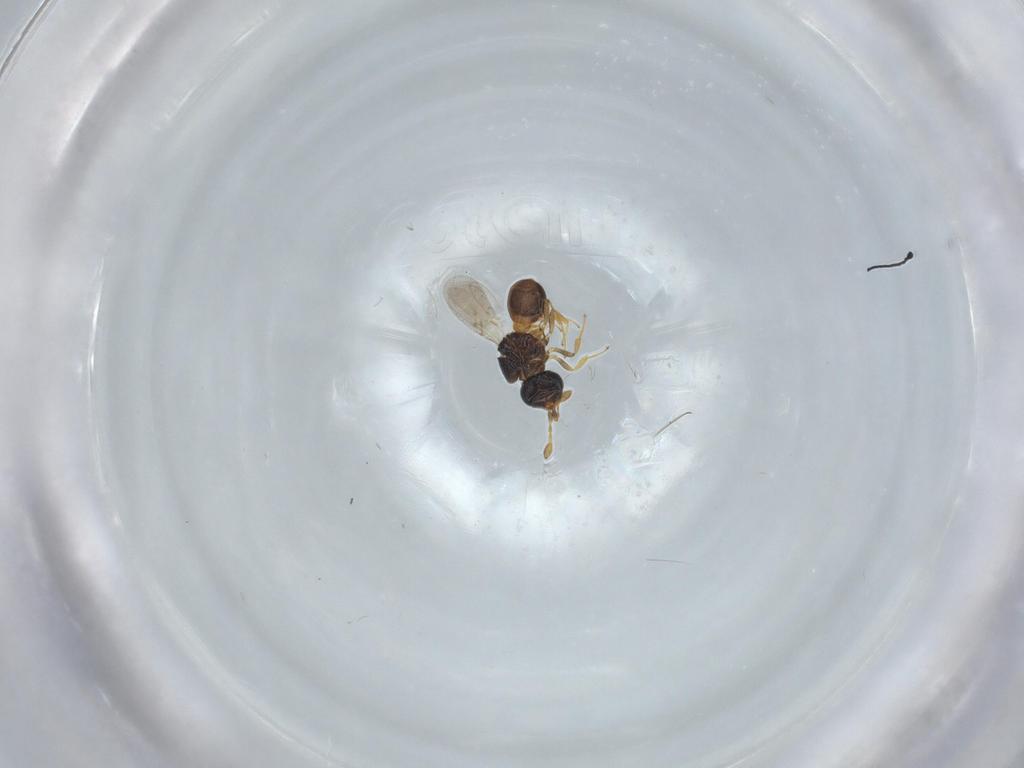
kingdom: Animalia
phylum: Arthropoda
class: Insecta
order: Hymenoptera
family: Scelionidae
